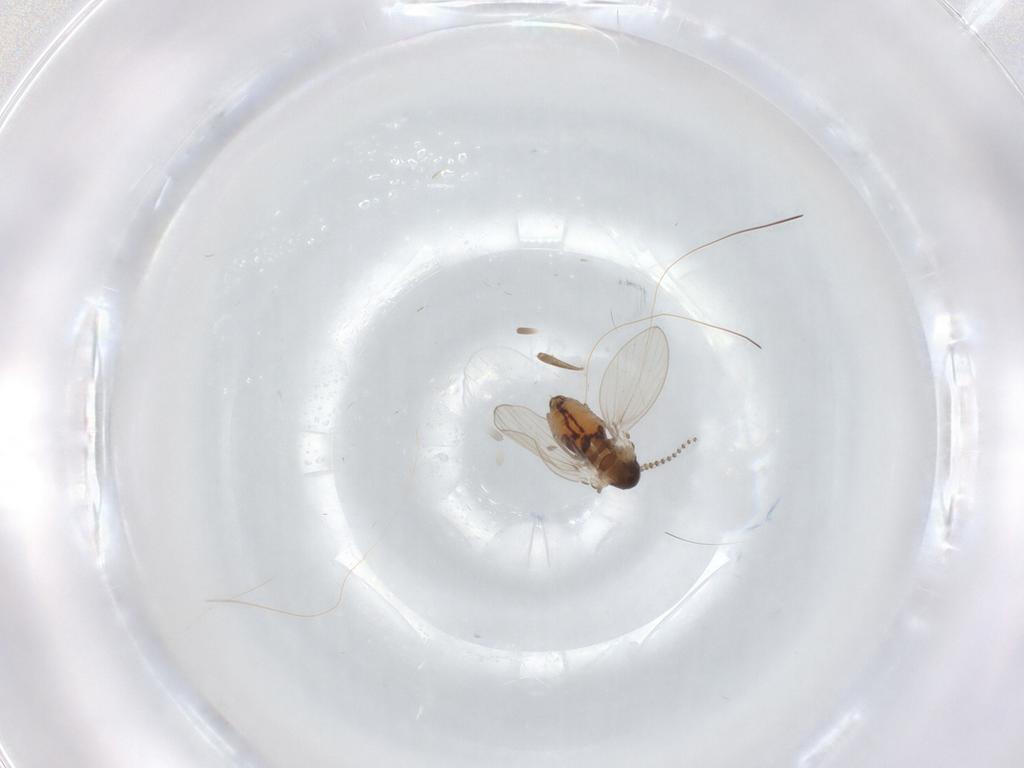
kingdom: Animalia
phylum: Arthropoda
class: Insecta
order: Diptera
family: Psychodidae
